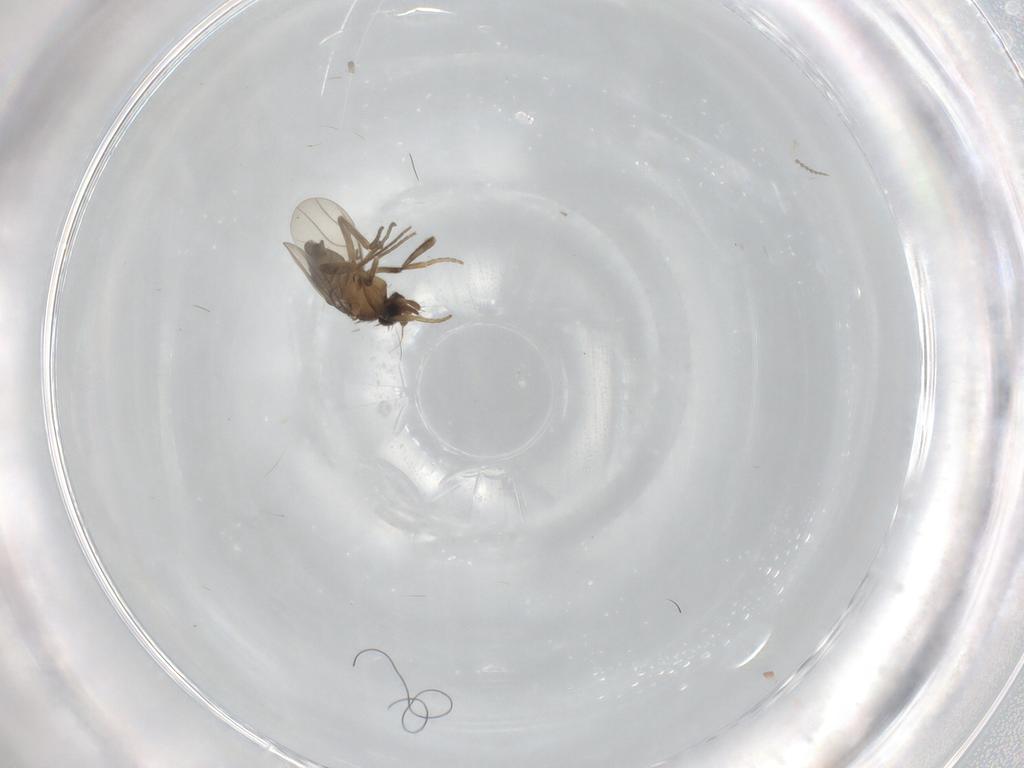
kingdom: Animalia
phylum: Arthropoda
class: Insecta
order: Diptera
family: Phoridae
